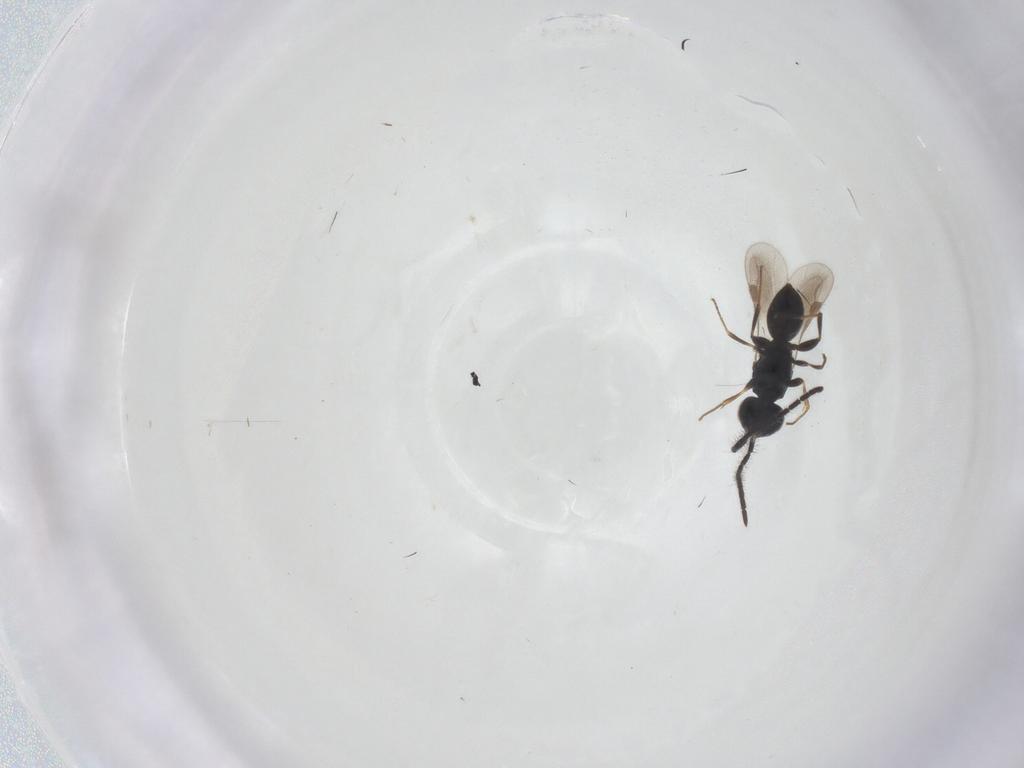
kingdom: Animalia
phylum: Arthropoda
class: Insecta
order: Hymenoptera
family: Megaspilidae
